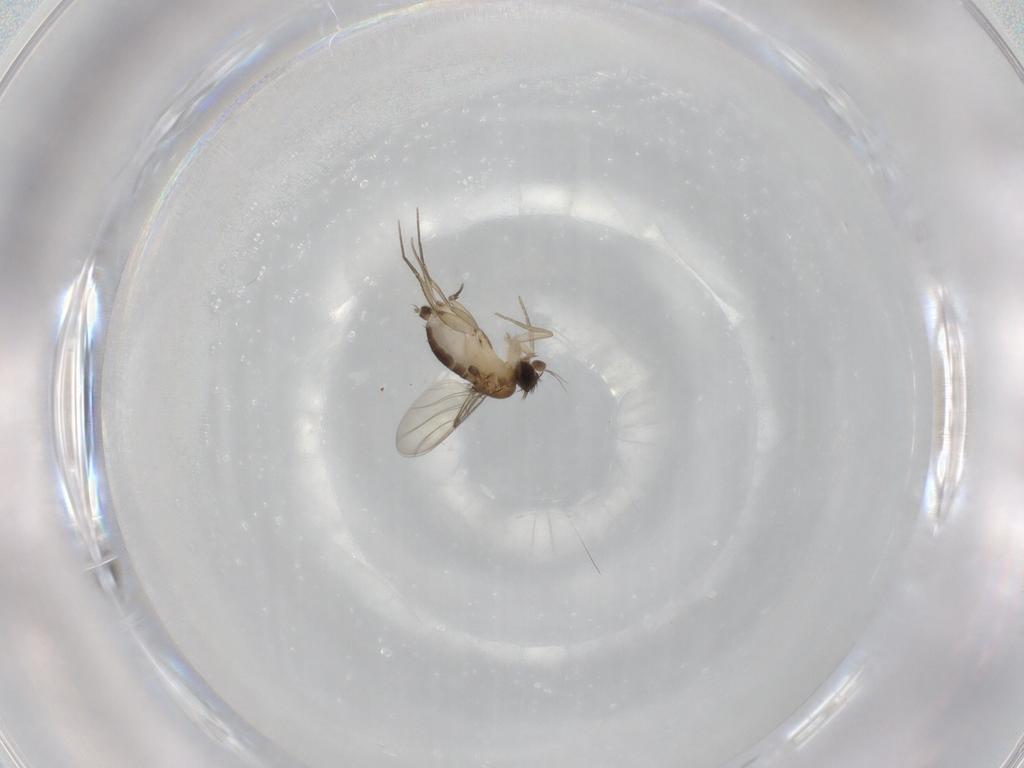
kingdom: Animalia
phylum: Arthropoda
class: Insecta
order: Diptera
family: Phoridae
